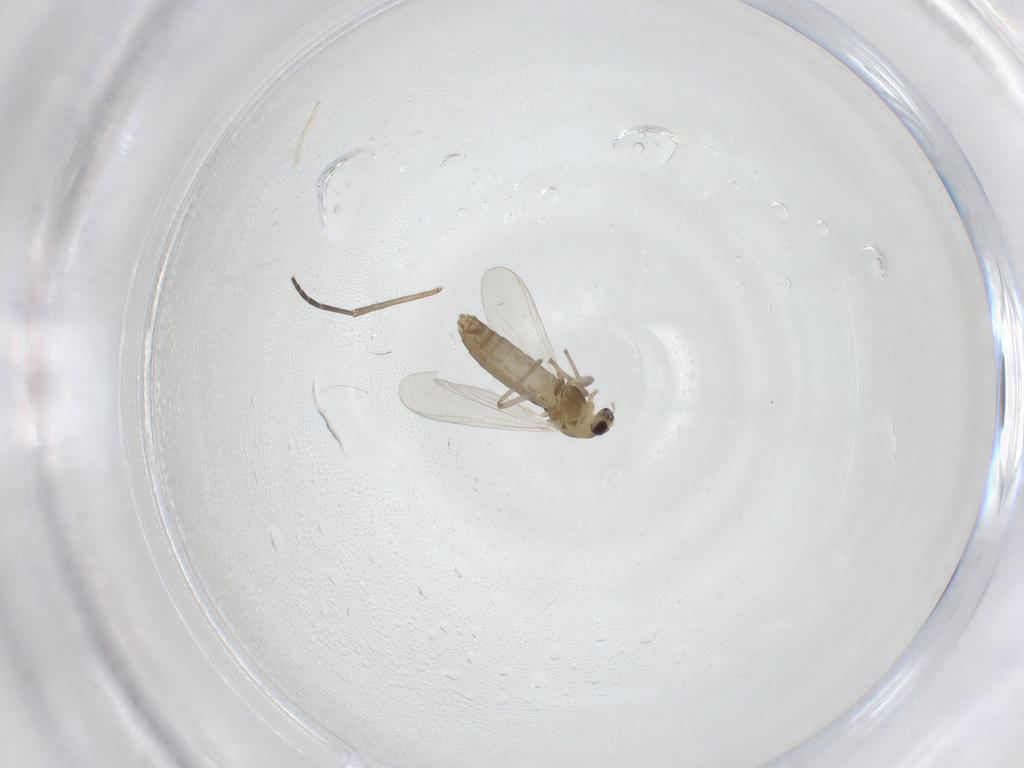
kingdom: Animalia
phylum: Arthropoda
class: Insecta
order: Diptera
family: Chironomidae
